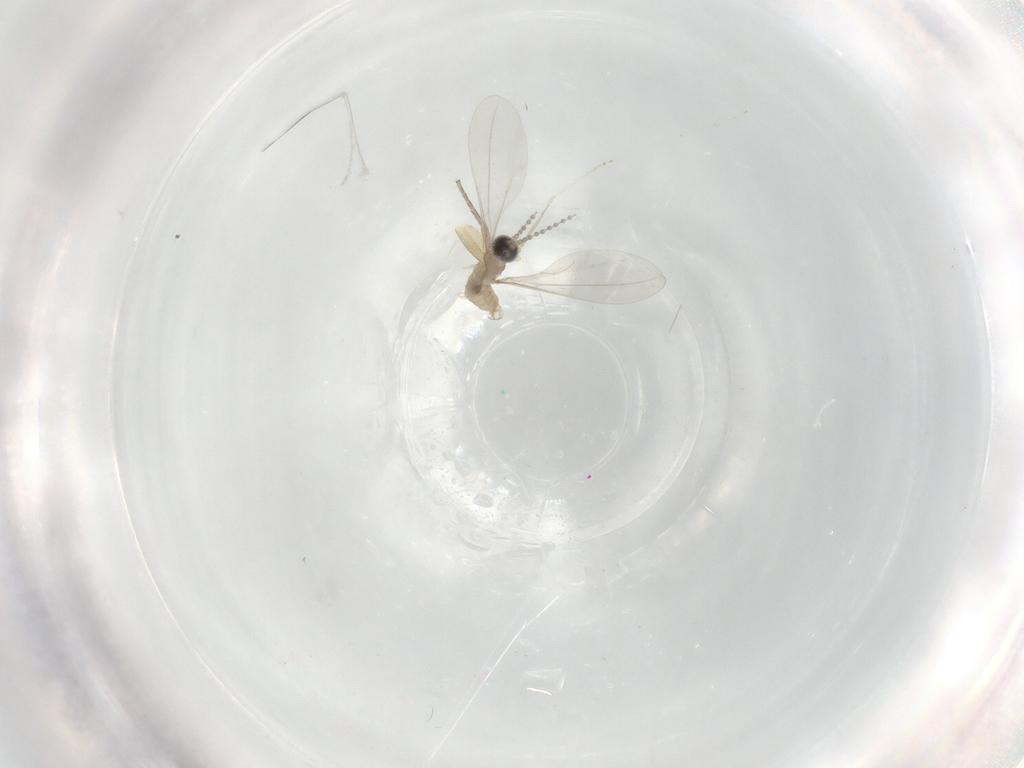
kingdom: Animalia
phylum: Arthropoda
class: Insecta
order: Diptera
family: Phoridae
